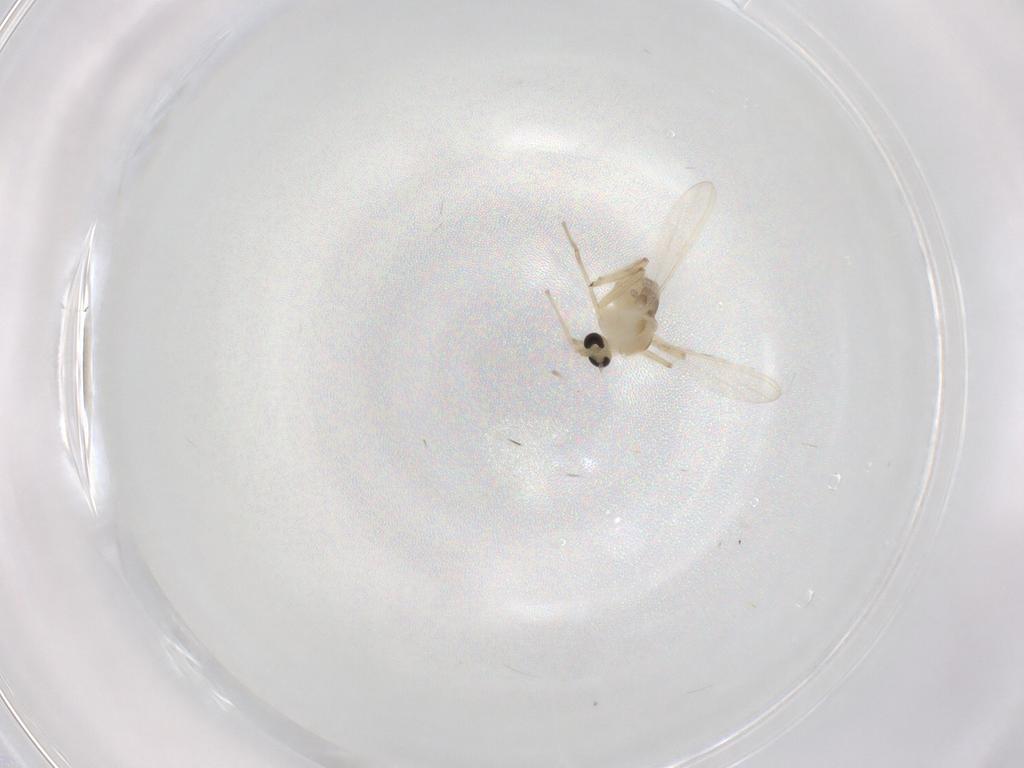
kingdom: Animalia
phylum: Arthropoda
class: Insecta
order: Diptera
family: Chironomidae
